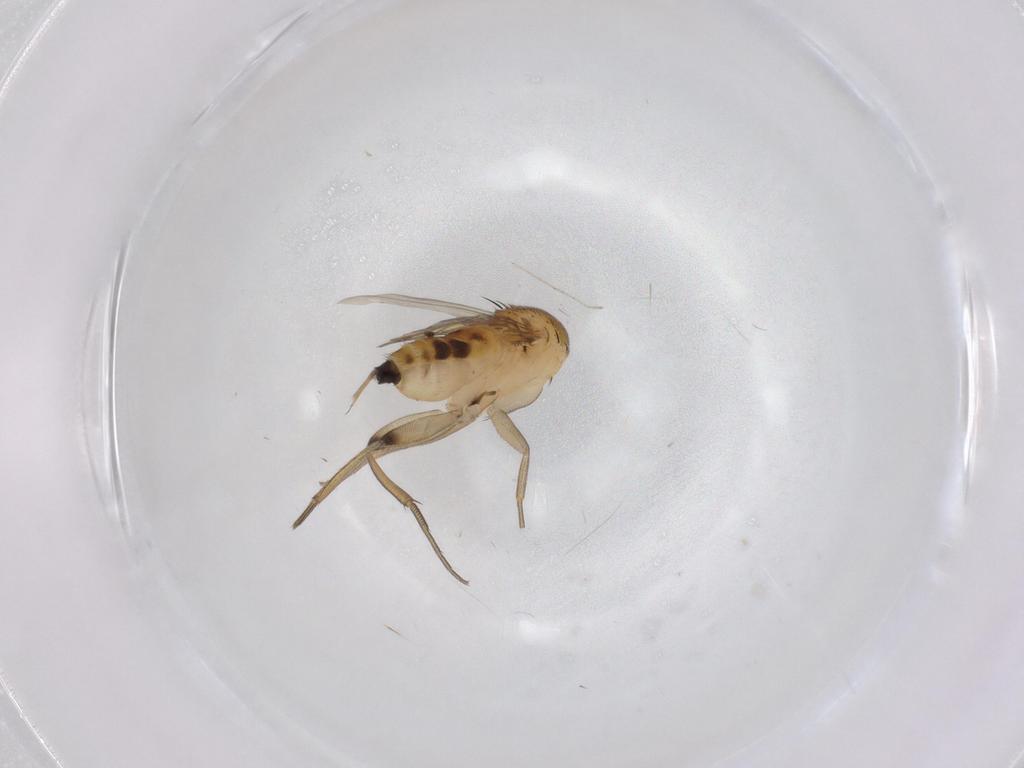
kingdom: Animalia
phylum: Arthropoda
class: Insecta
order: Diptera
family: Phoridae
